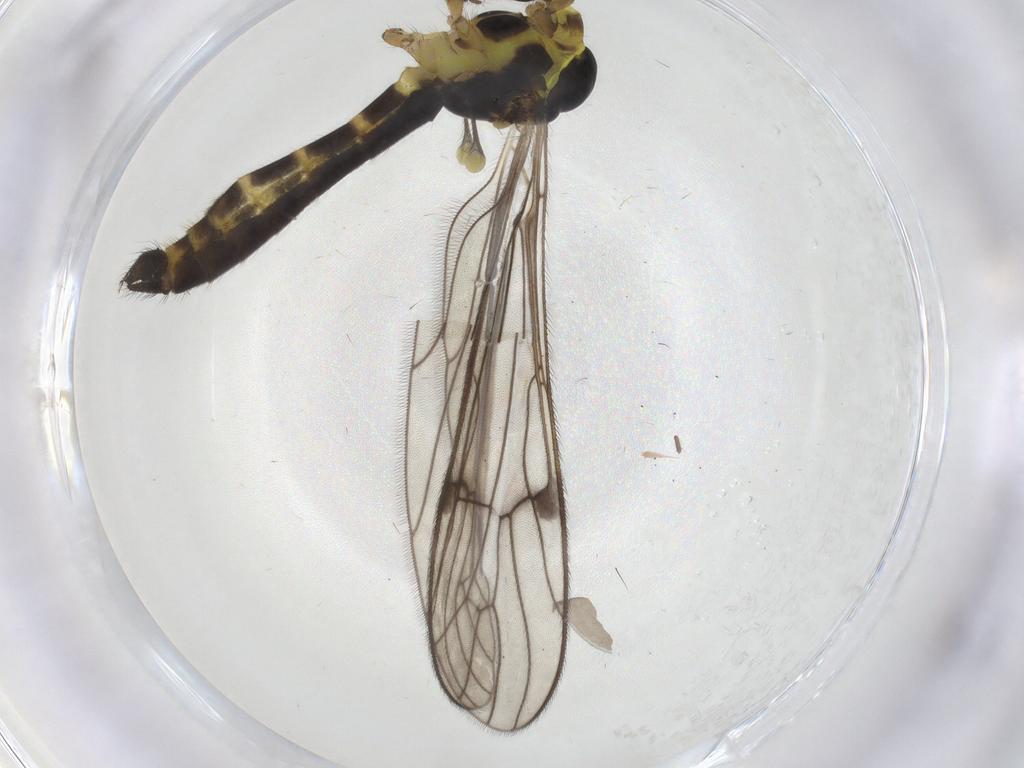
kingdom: Animalia
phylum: Arthropoda
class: Insecta
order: Diptera
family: Limoniidae
